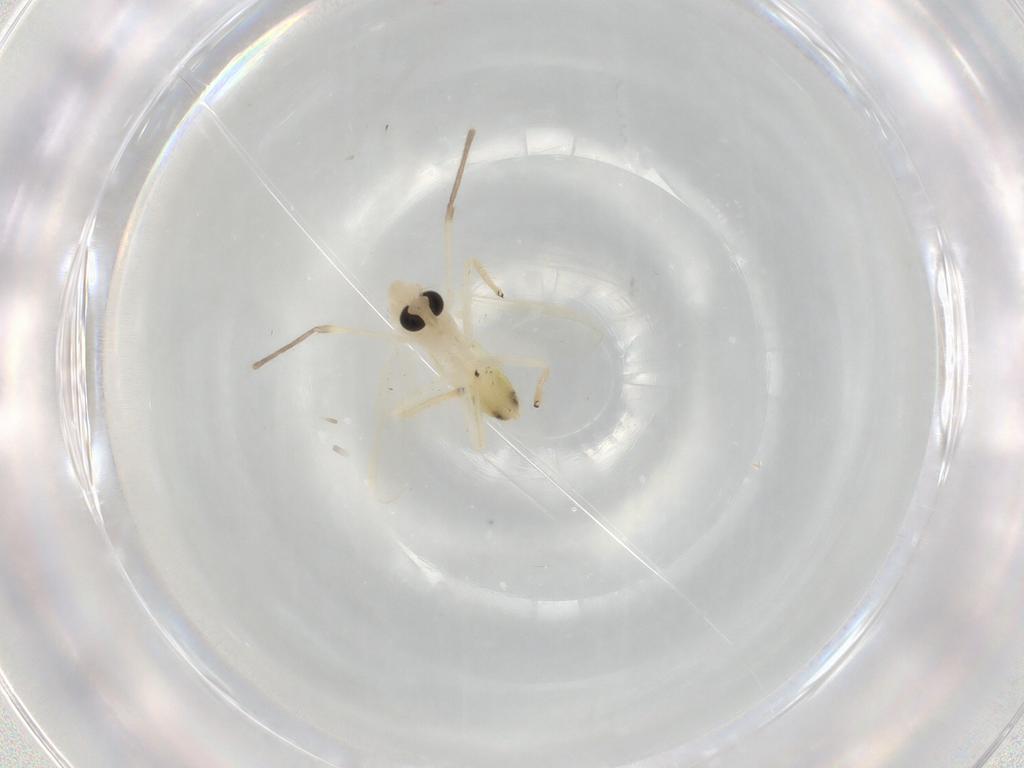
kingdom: Animalia
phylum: Arthropoda
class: Insecta
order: Diptera
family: Chironomidae
